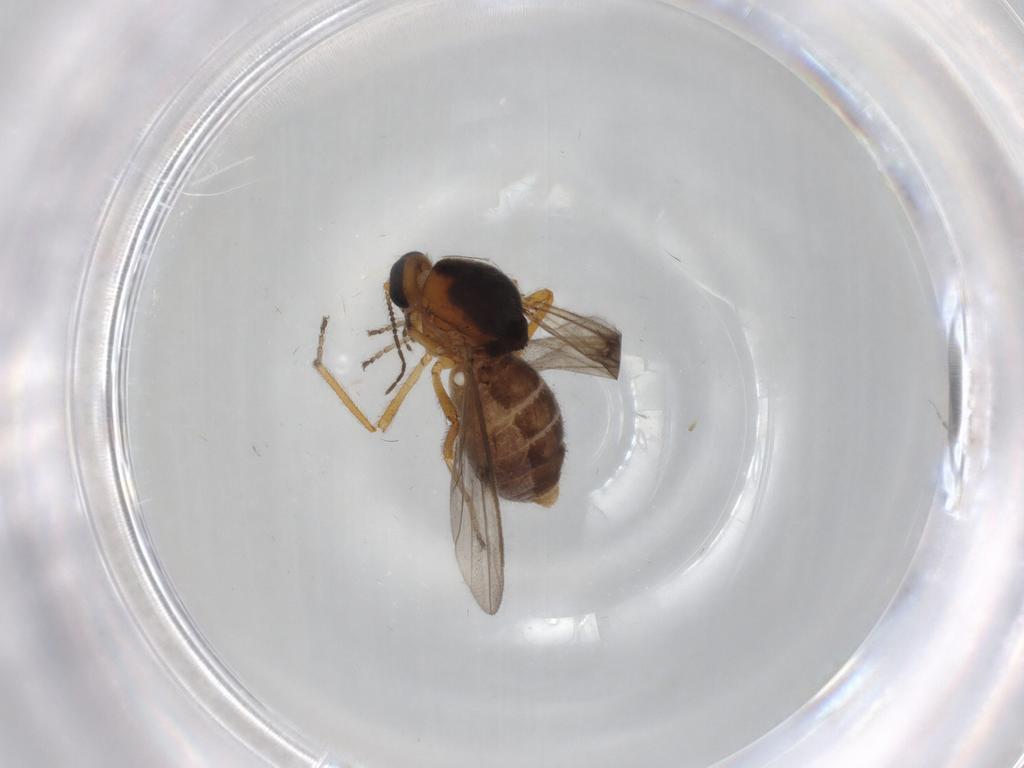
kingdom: Animalia
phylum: Arthropoda
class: Insecta
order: Diptera
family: Ceratopogonidae
